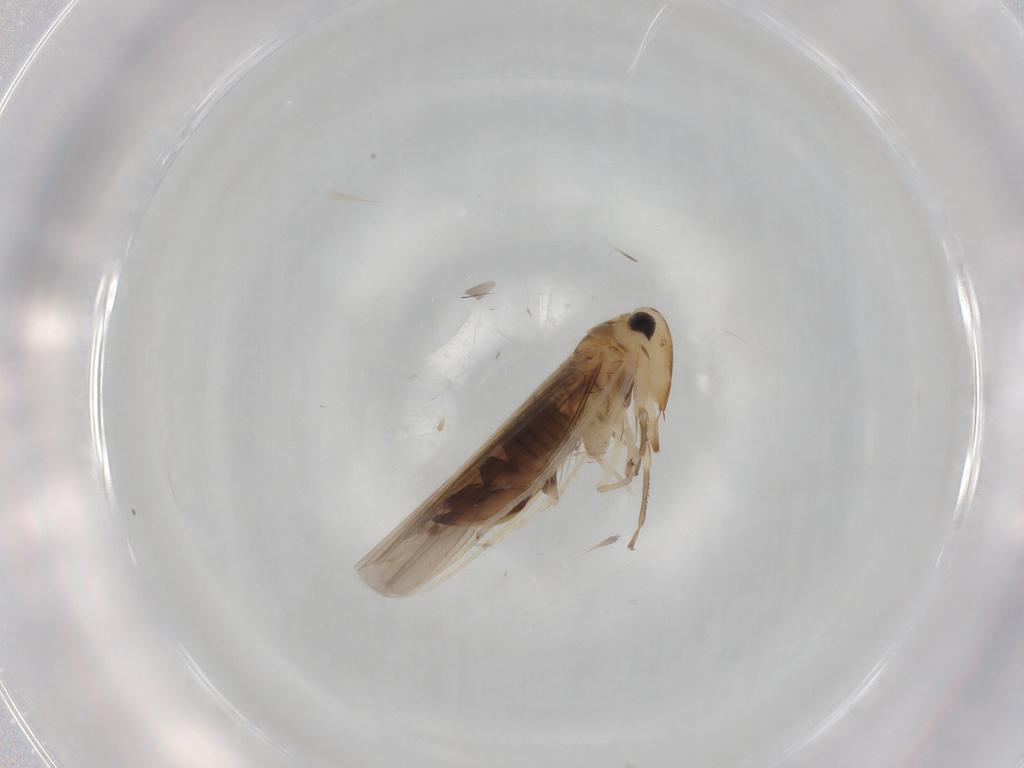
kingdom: Animalia
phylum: Arthropoda
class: Insecta
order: Hemiptera
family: Cicadellidae
